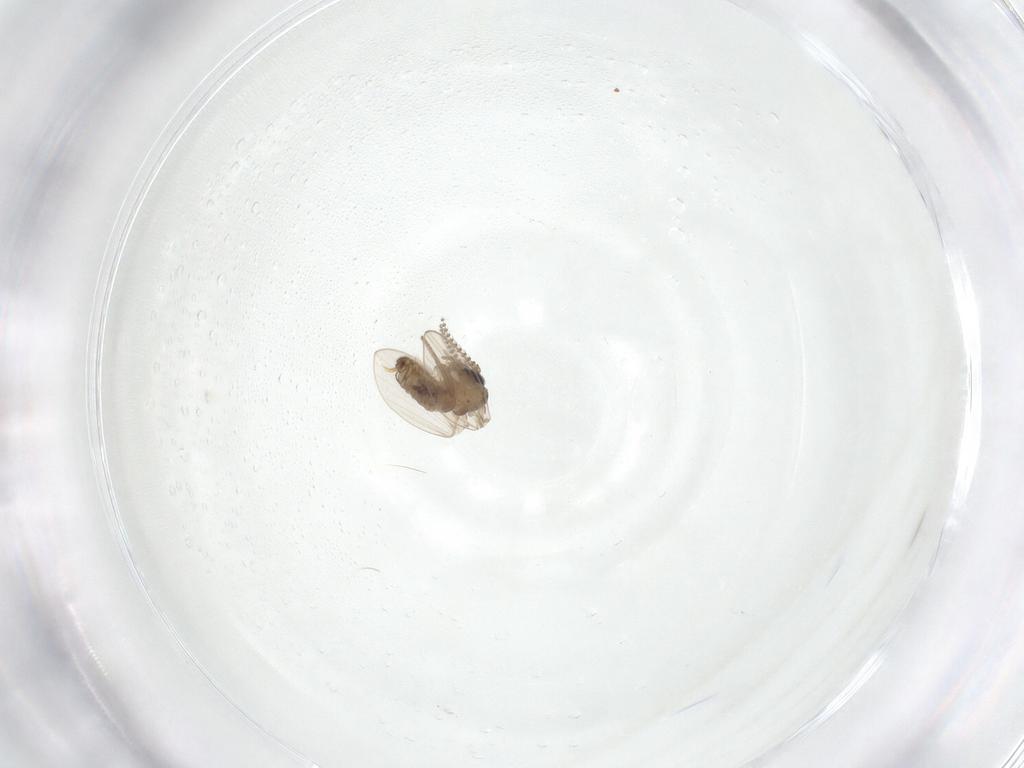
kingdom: Animalia
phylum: Arthropoda
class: Insecta
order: Diptera
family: Psychodidae
